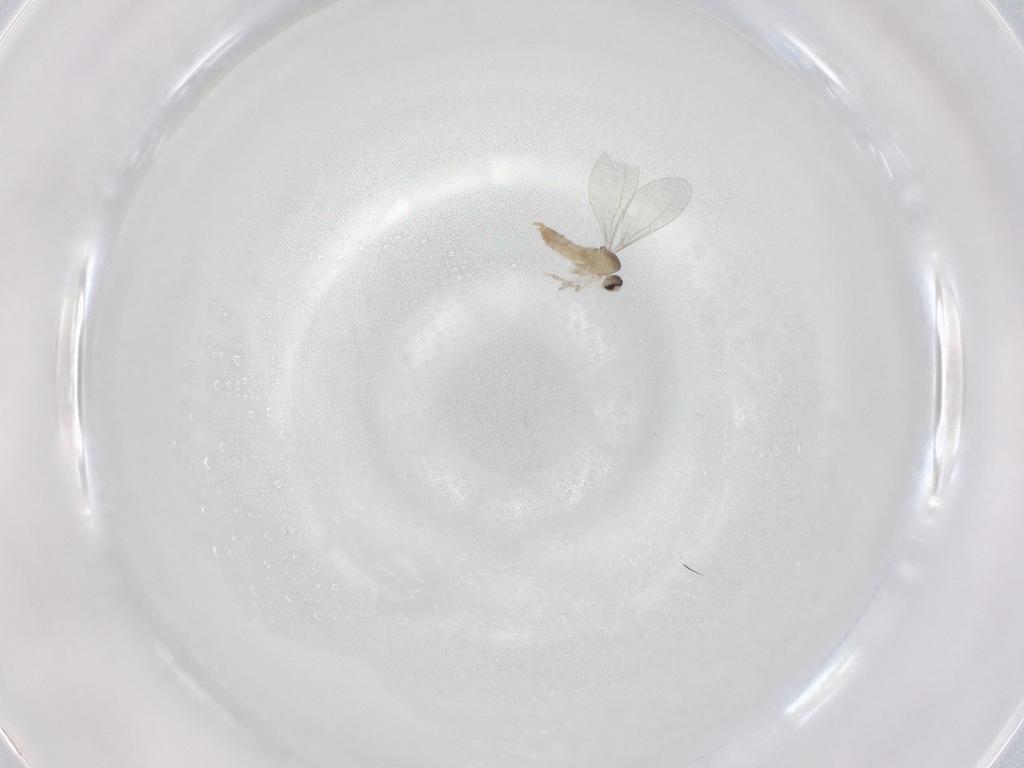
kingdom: Animalia
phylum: Arthropoda
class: Insecta
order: Diptera
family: Cecidomyiidae
